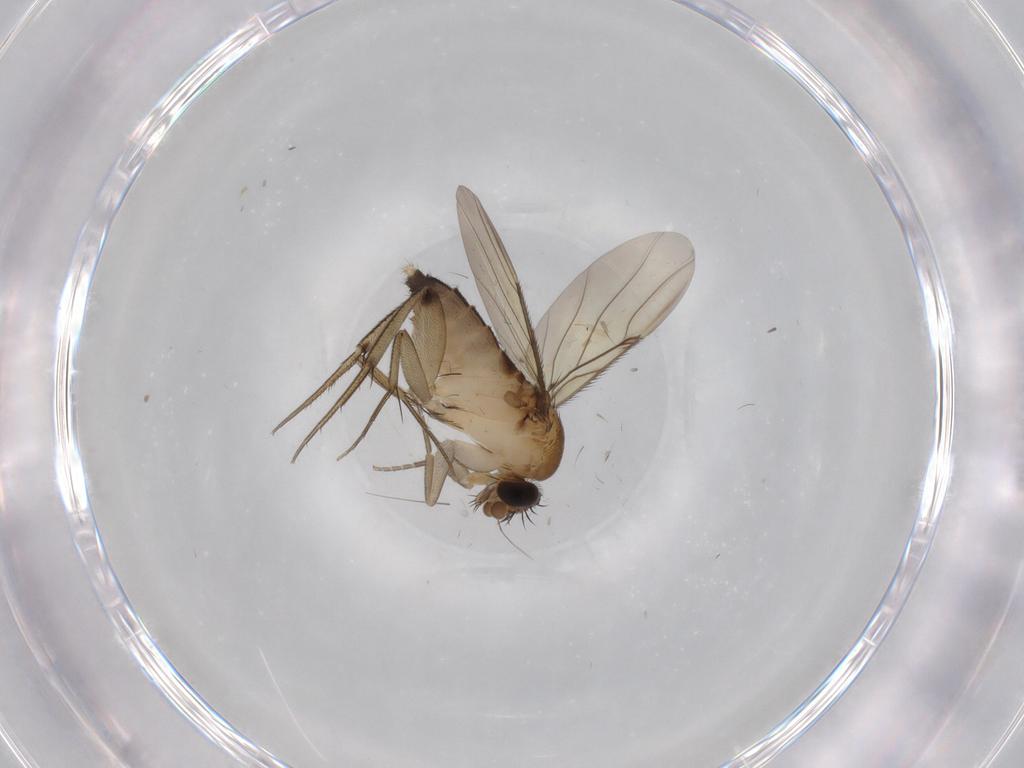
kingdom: Animalia
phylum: Arthropoda
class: Insecta
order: Diptera
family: Phoridae
